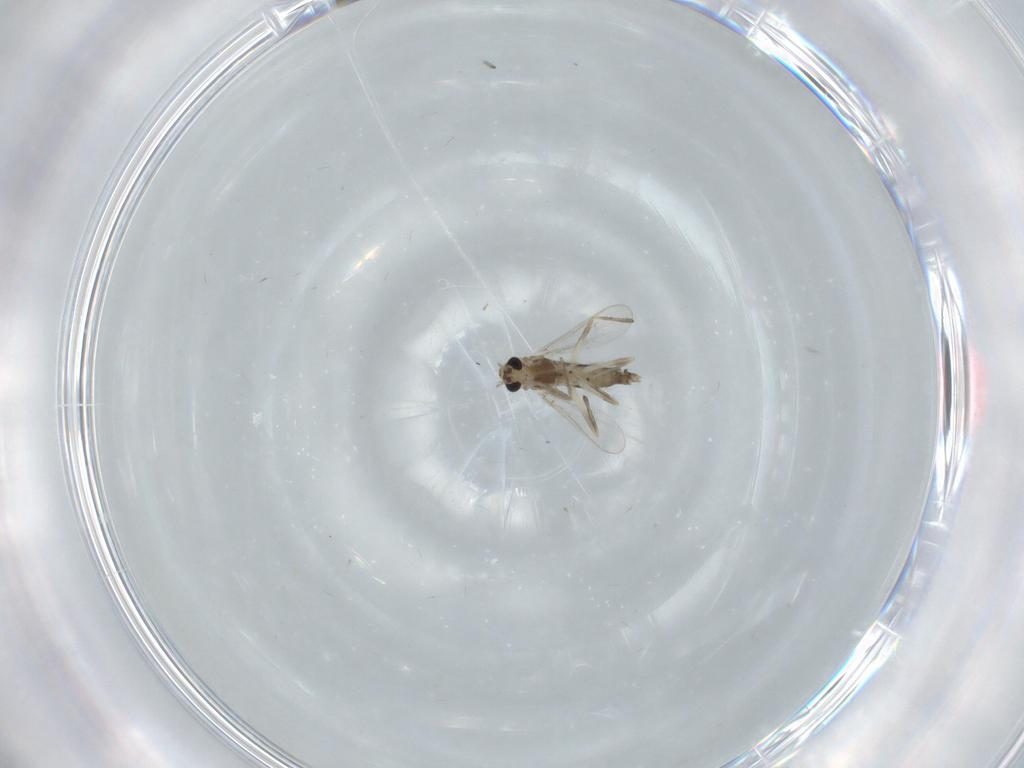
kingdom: Animalia
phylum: Arthropoda
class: Insecta
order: Diptera
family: Chironomidae
